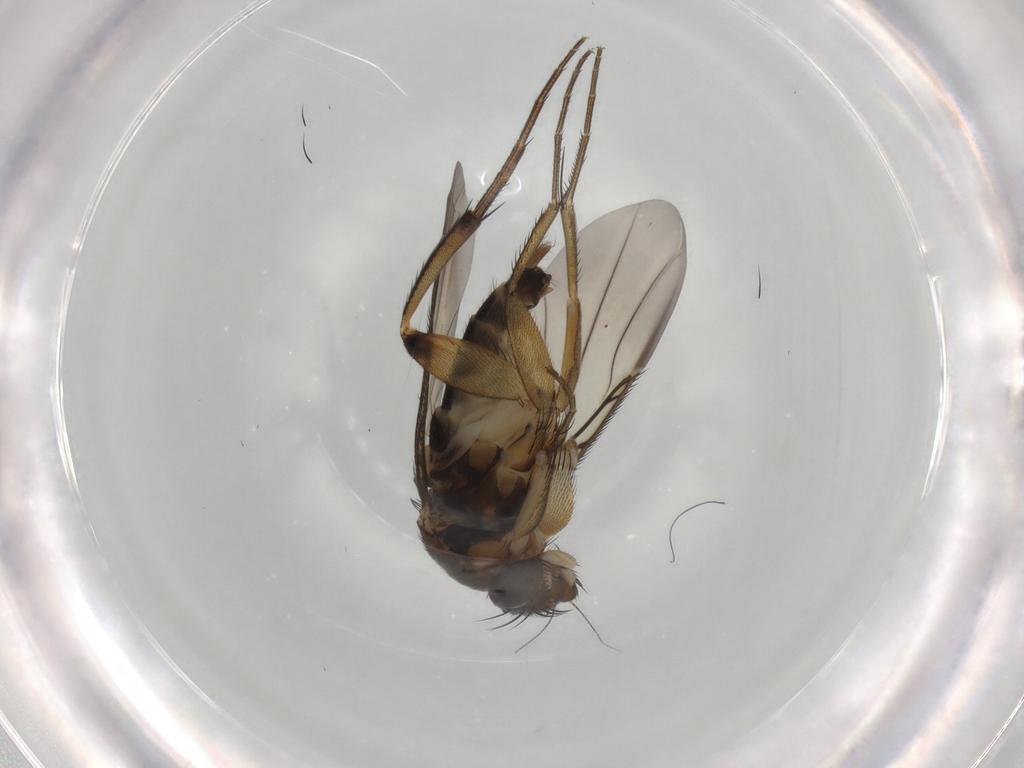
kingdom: Animalia
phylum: Arthropoda
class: Insecta
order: Diptera
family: Phoridae
